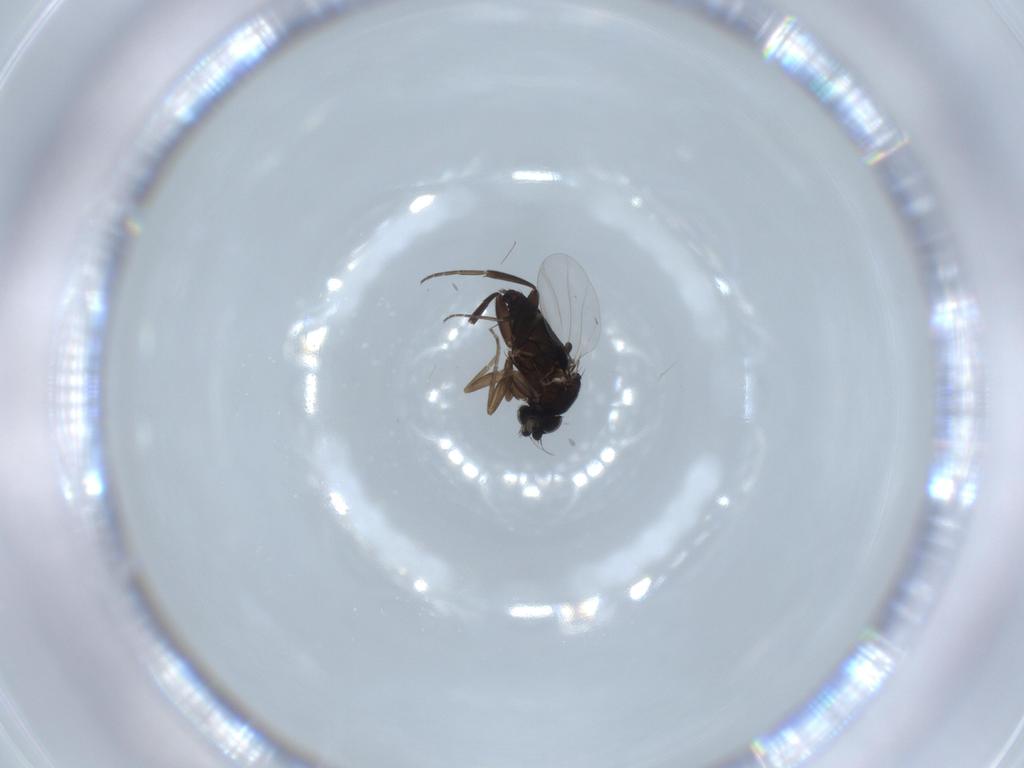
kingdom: Animalia
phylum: Arthropoda
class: Insecta
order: Diptera
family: Phoridae
